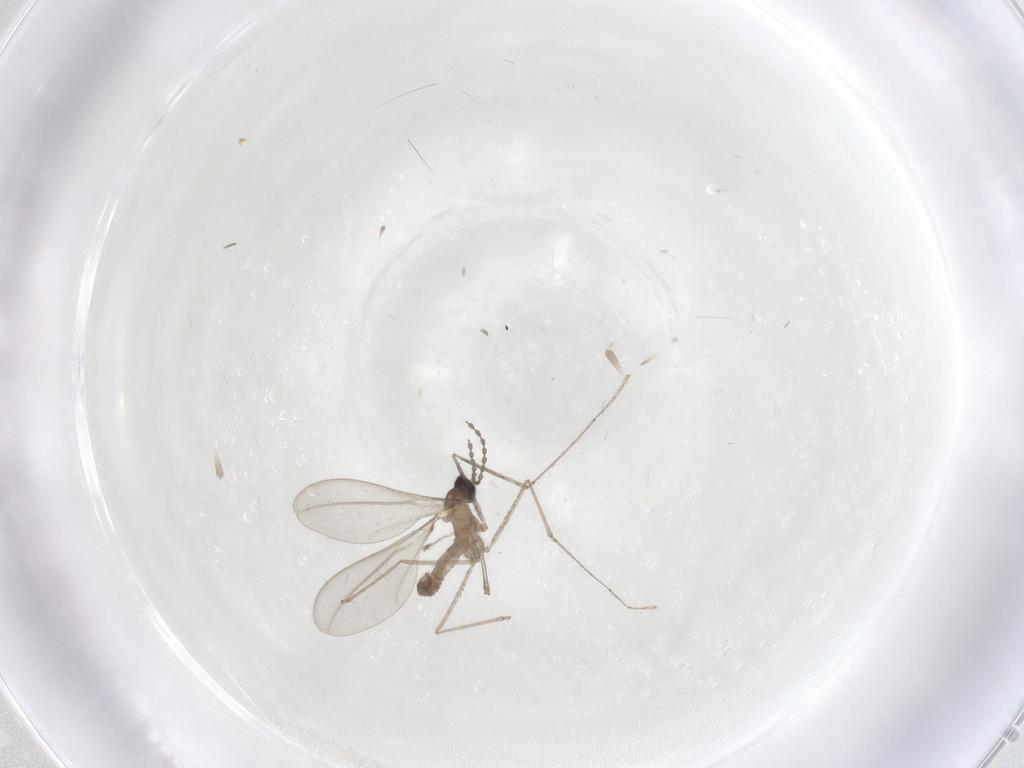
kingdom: Animalia
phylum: Arthropoda
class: Insecta
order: Diptera
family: Cecidomyiidae
